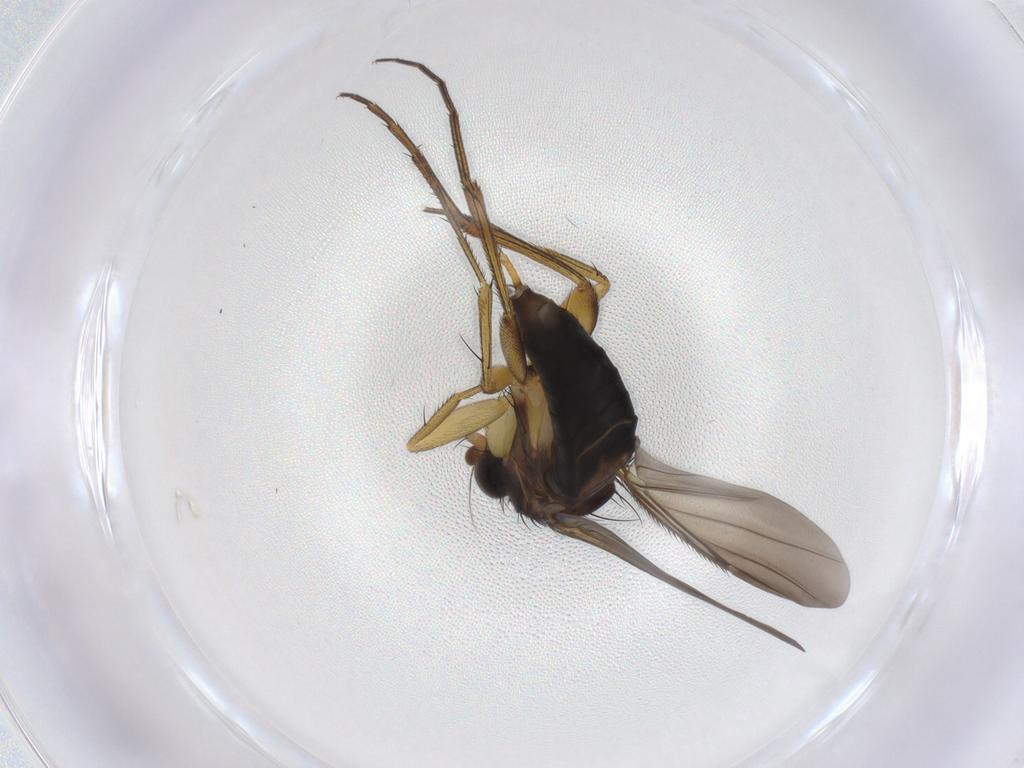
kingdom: Animalia
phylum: Arthropoda
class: Insecta
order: Diptera
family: Phoridae
